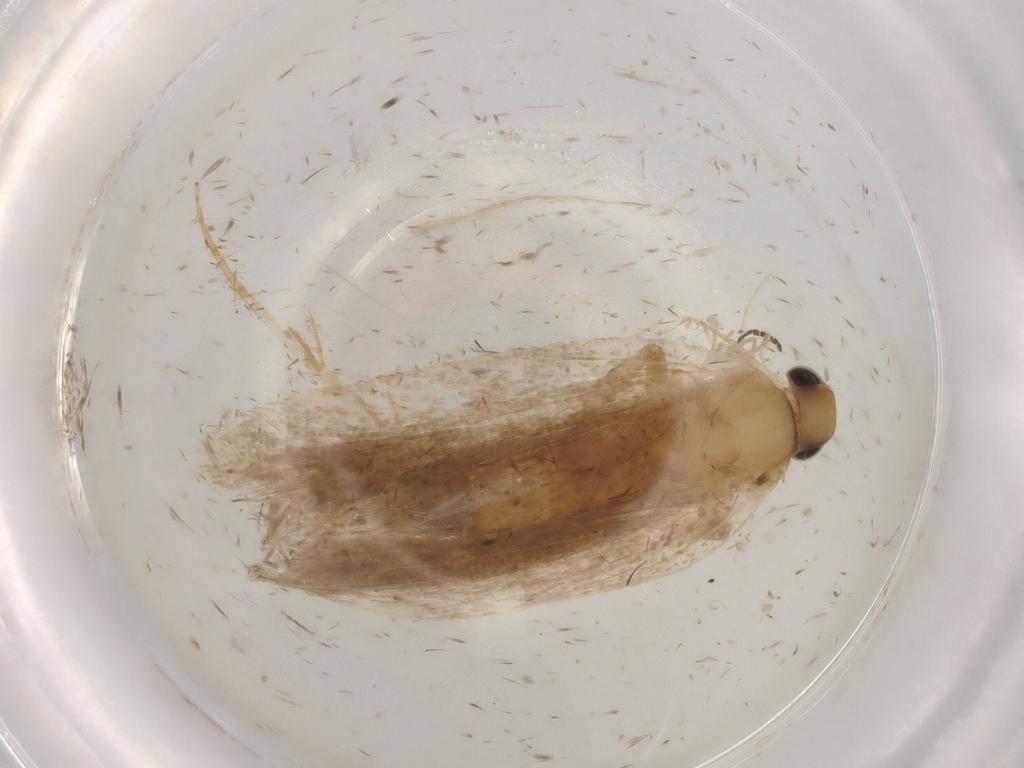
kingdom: Animalia
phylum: Arthropoda
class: Insecta
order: Lepidoptera
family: Gelechiidae
